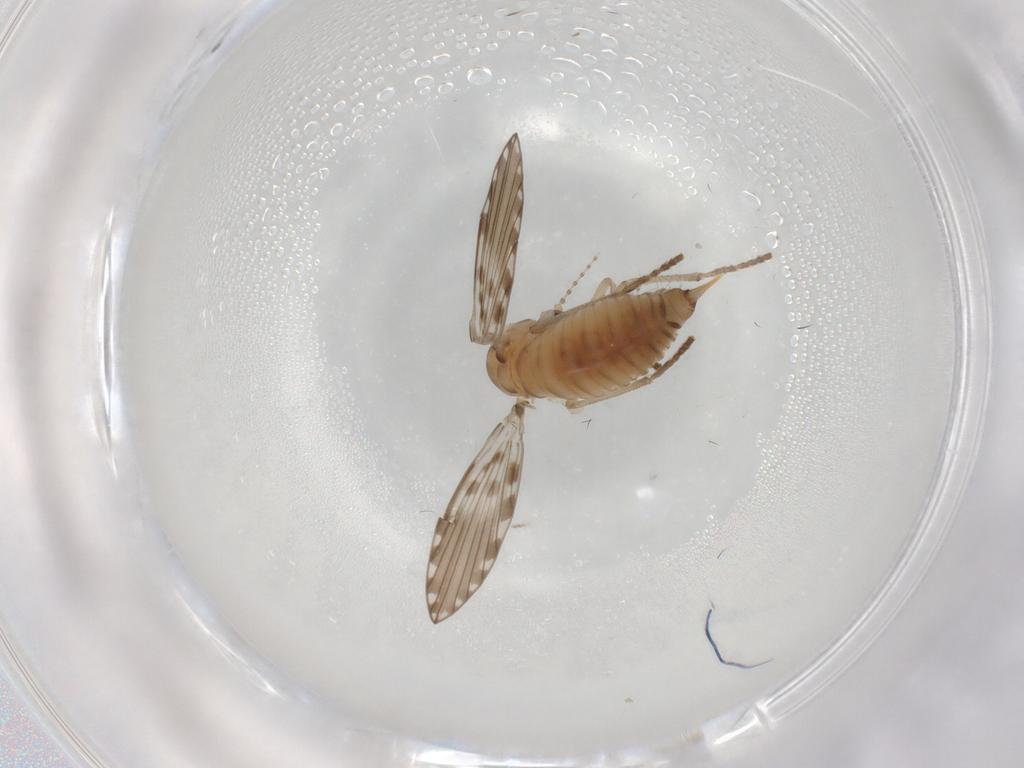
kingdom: Animalia
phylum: Arthropoda
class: Insecta
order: Diptera
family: Psychodidae
